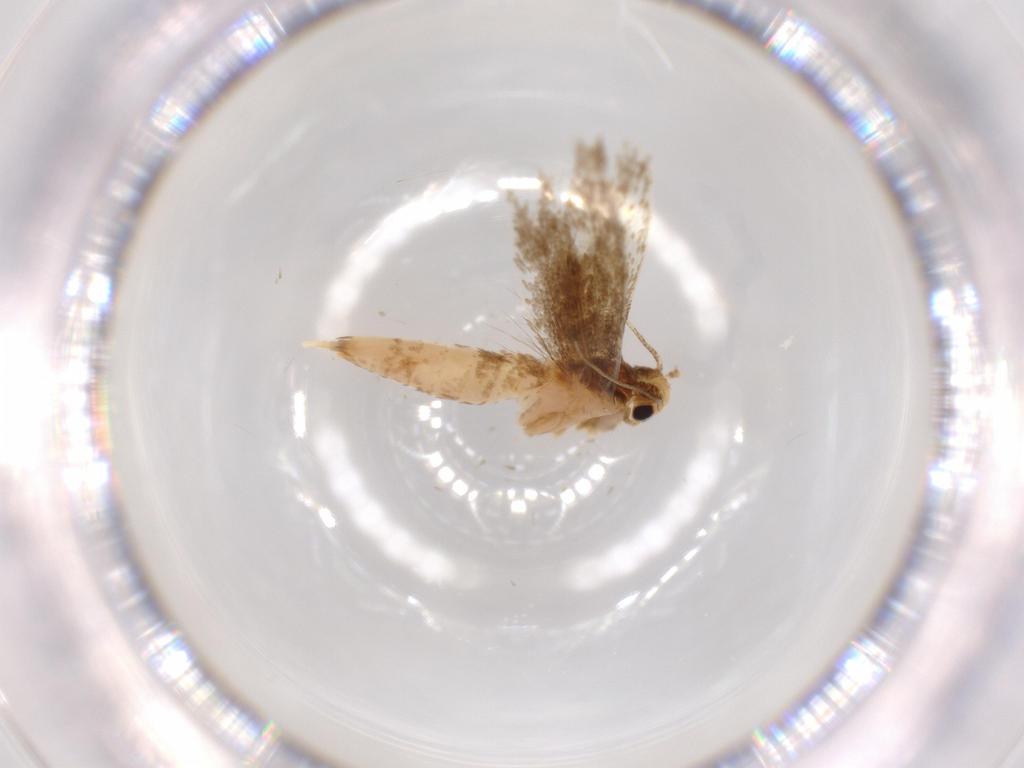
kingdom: Animalia
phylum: Arthropoda
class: Insecta
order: Lepidoptera
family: Tineidae
